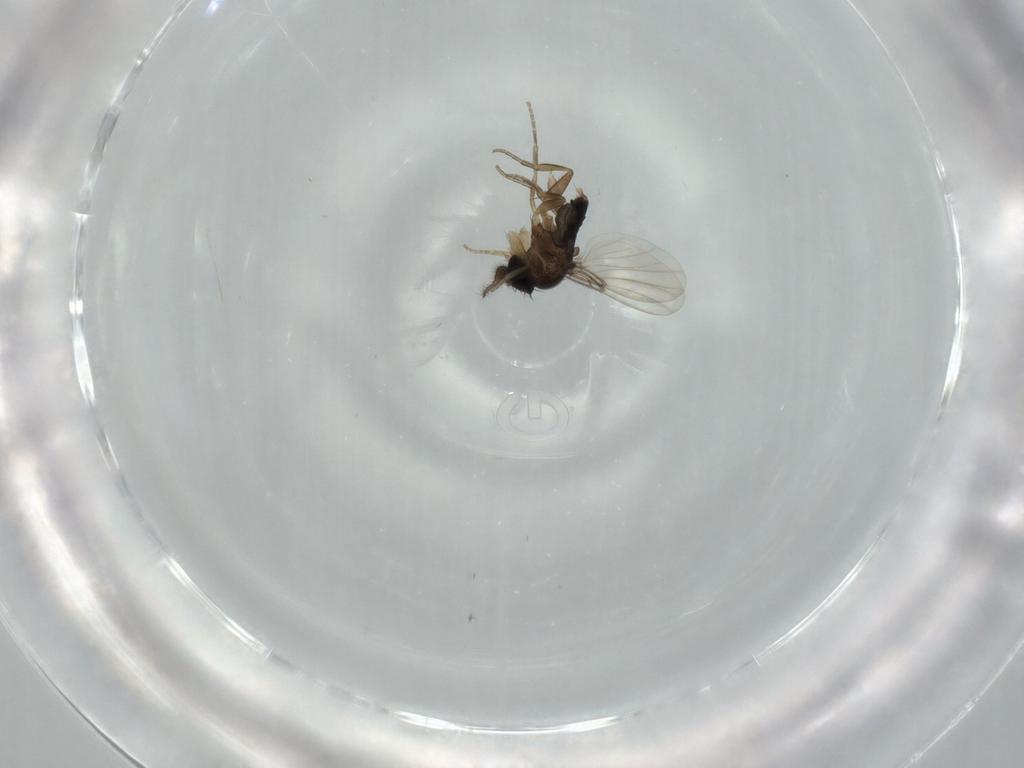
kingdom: Animalia
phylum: Arthropoda
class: Insecta
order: Diptera
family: Phoridae
